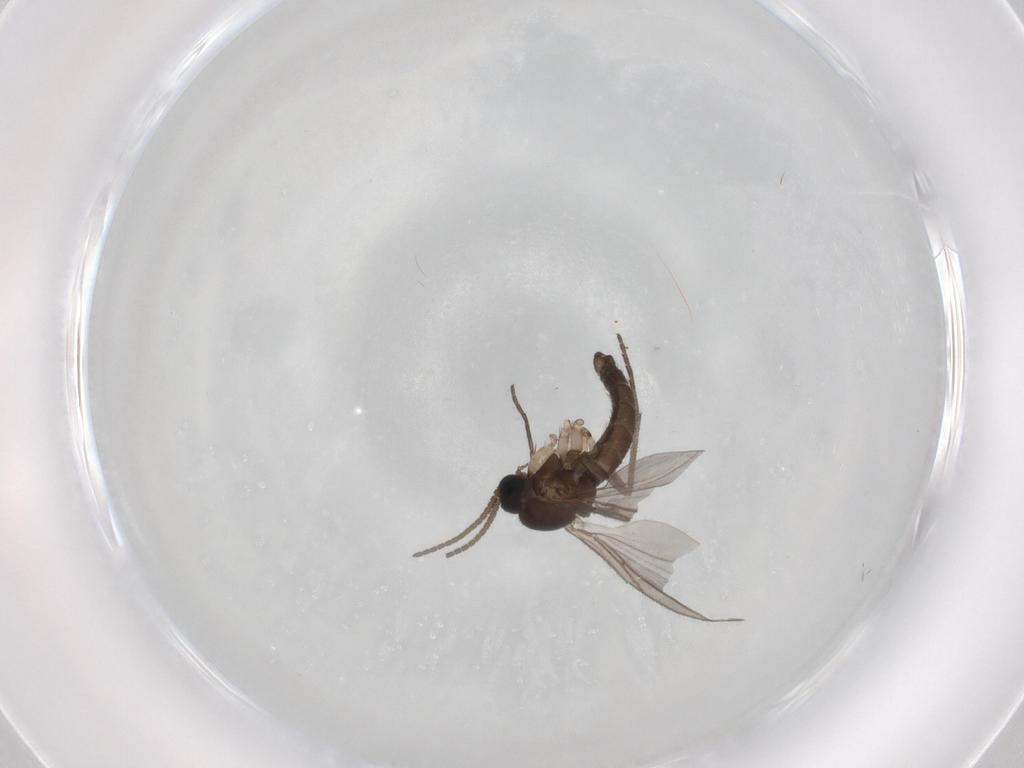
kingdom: Animalia
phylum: Arthropoda
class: Insecta
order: Diptera
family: Sciaridae
